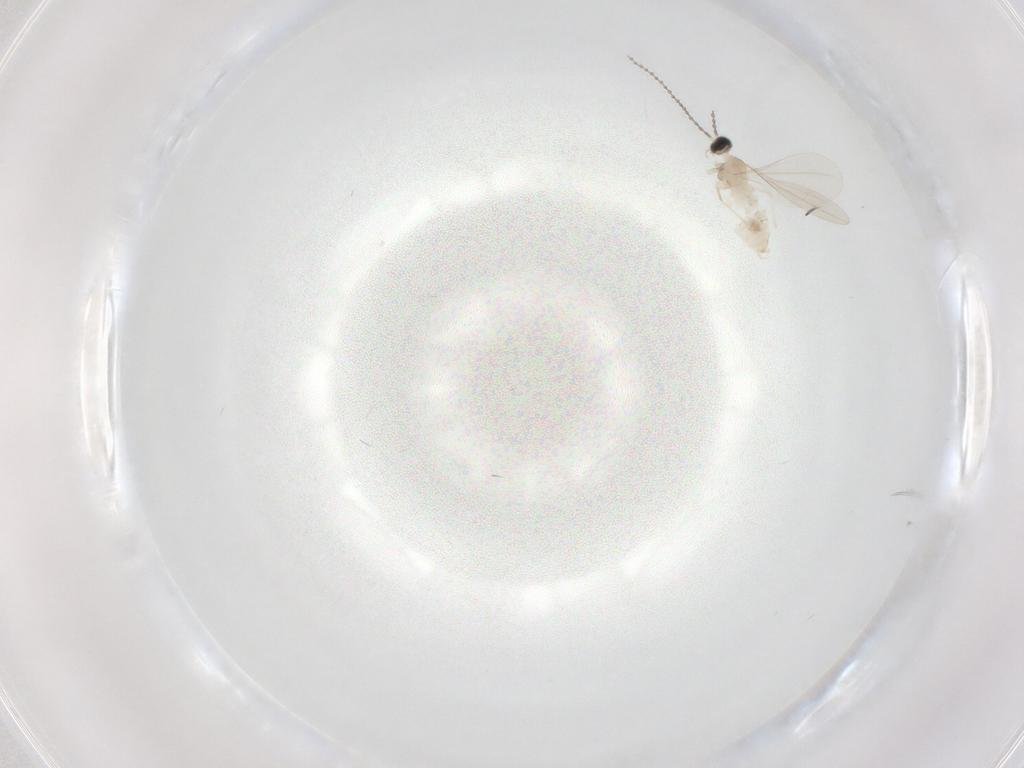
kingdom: Animalia
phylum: Arthropoda
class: Insecta
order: Diptera
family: Cecidomyiidae
